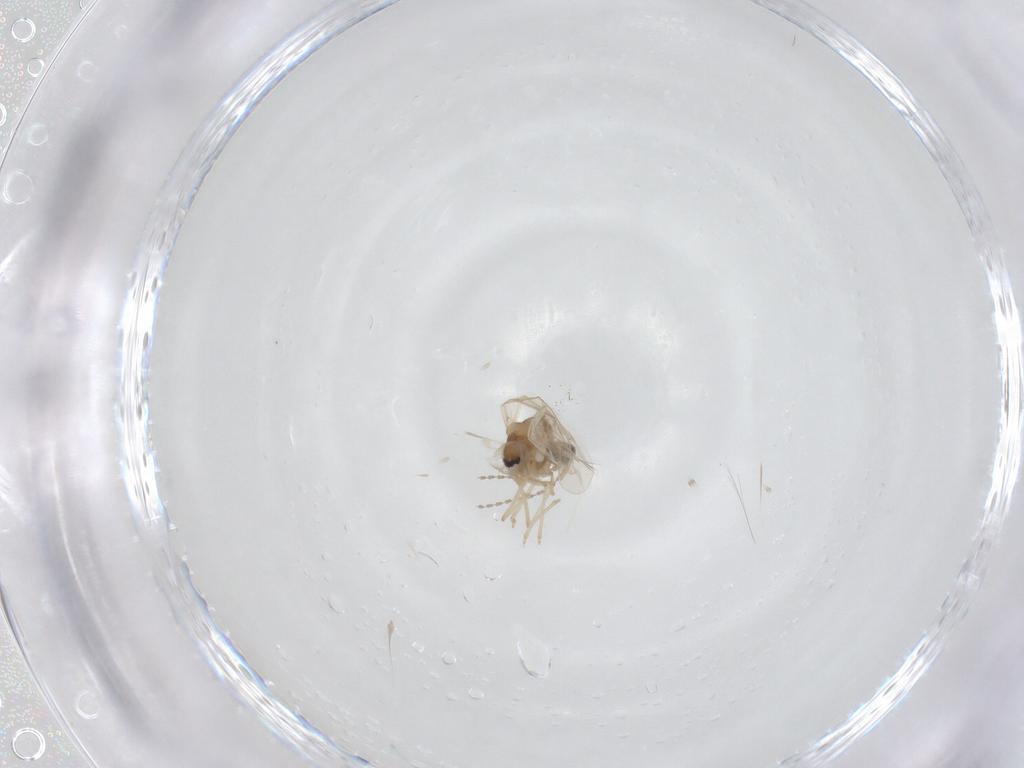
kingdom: Animalia
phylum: Arthropoda
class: Insecta
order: Diptera
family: Cecidomyiidae
